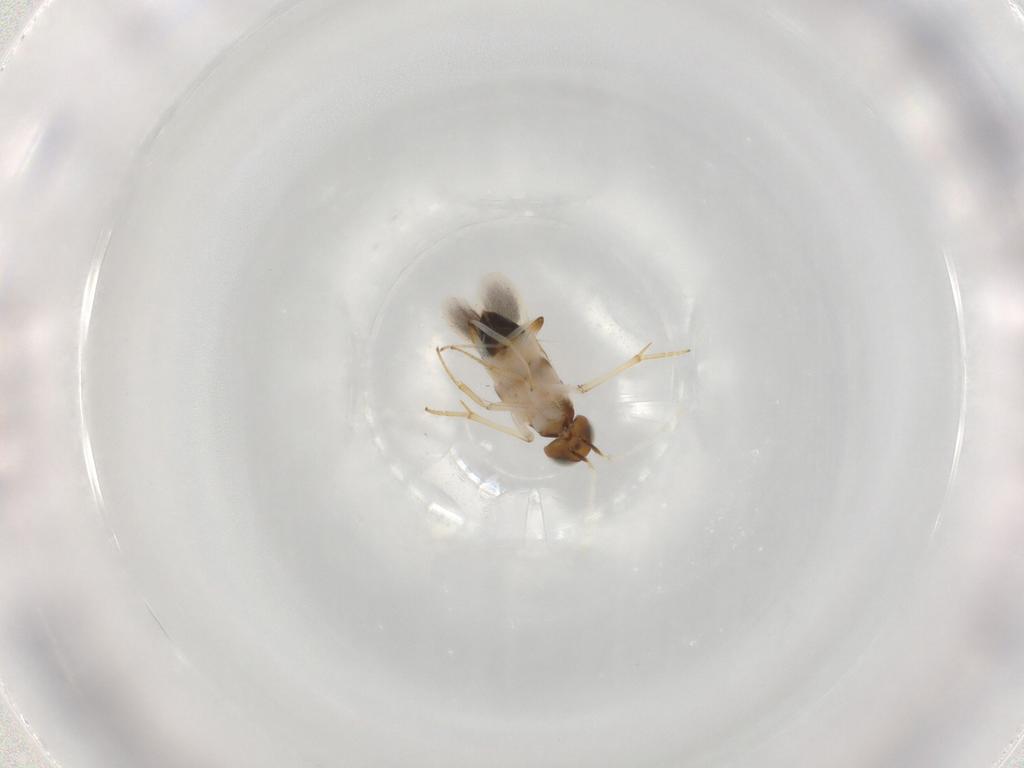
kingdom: Animalia
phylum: Arthropoda
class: Insecta
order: Hymenoptera
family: Encyrtidae
